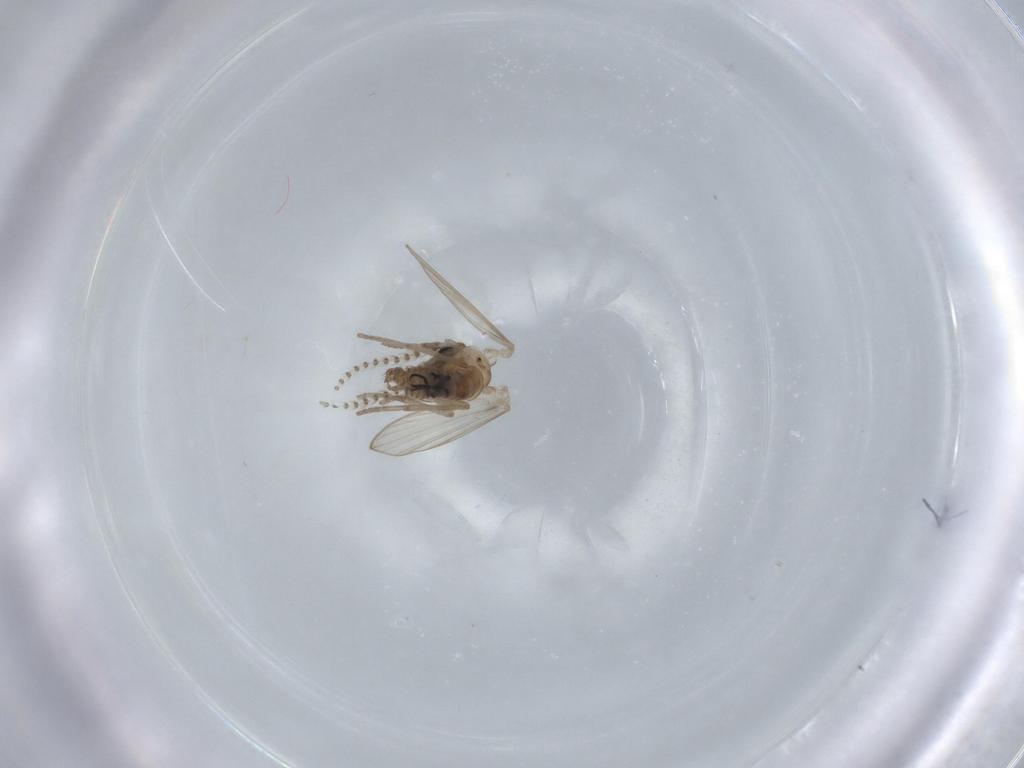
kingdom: Animalia
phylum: Arthropoda
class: Insecta
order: Diptera
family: Psychodidae
